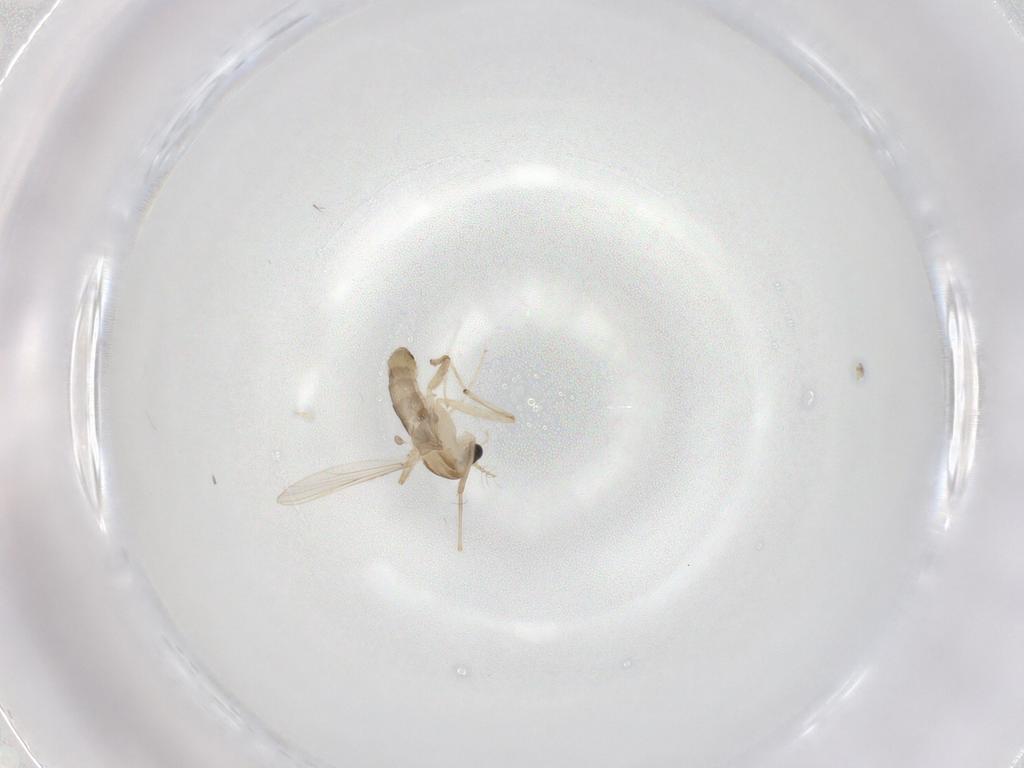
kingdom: Animalia
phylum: Arthropoda
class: Insecta
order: Diptera
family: Chironomidae
